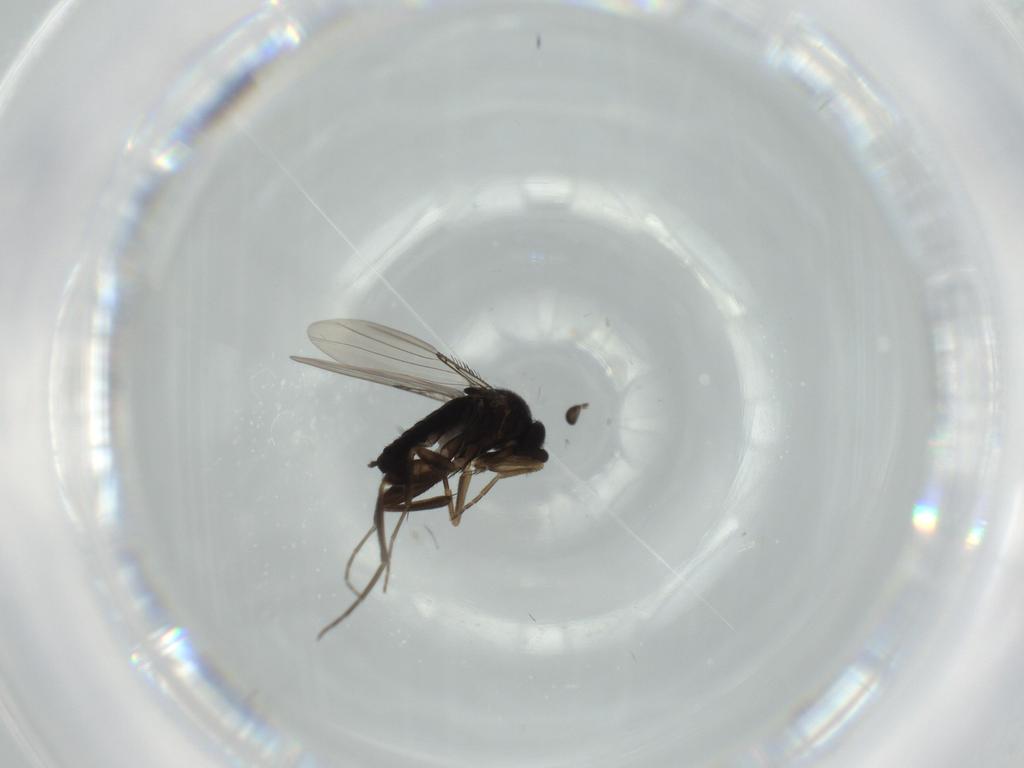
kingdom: Animalia
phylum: Arthropoda
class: Insecta
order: Diptera
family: Phoridae
